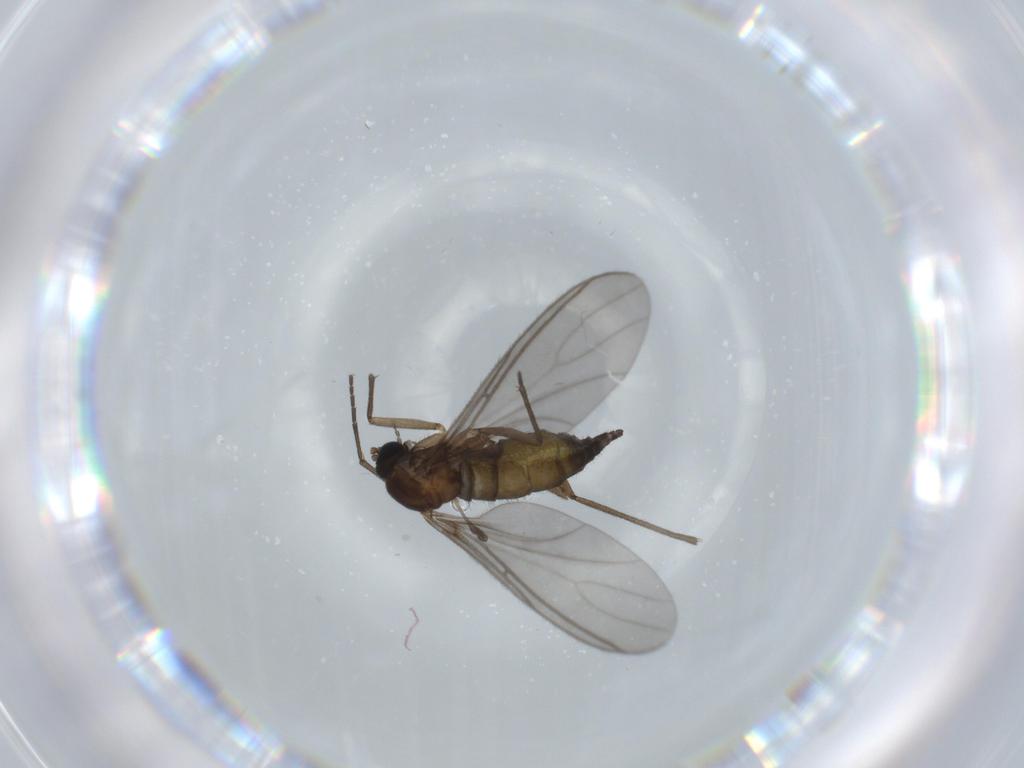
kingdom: Animalia
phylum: Arthropoda
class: Insecta
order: Diptera
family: Sciaridae
